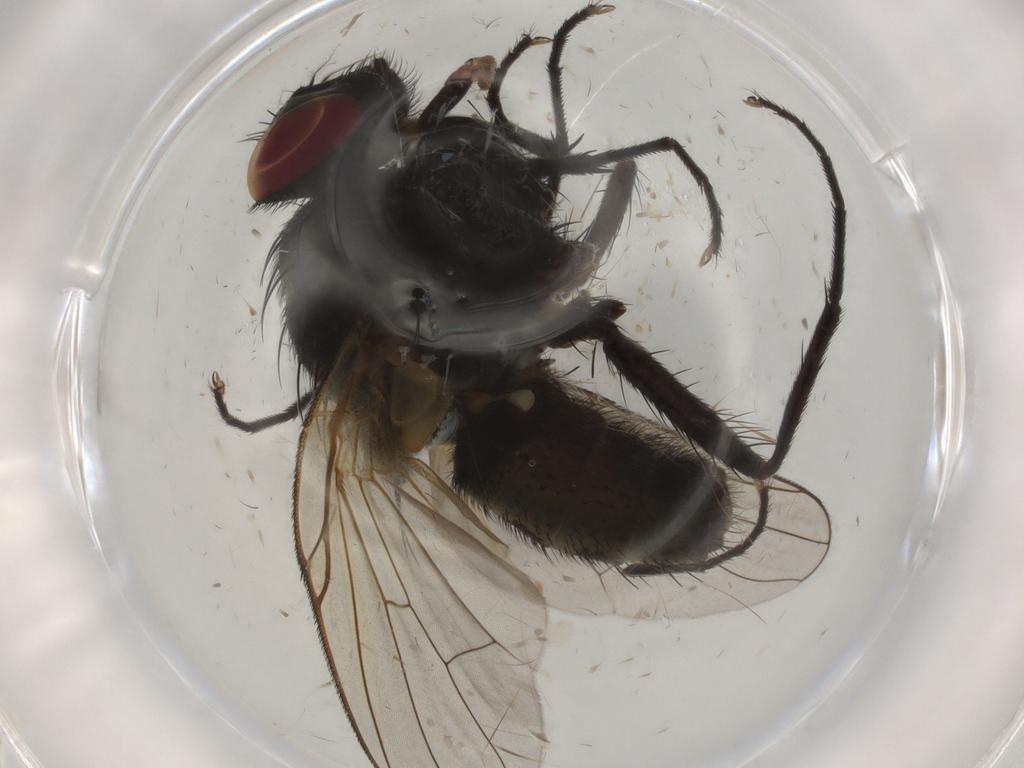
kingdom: Animalia
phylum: Arthropoda
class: Insecta
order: Diptera
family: Muscidae
